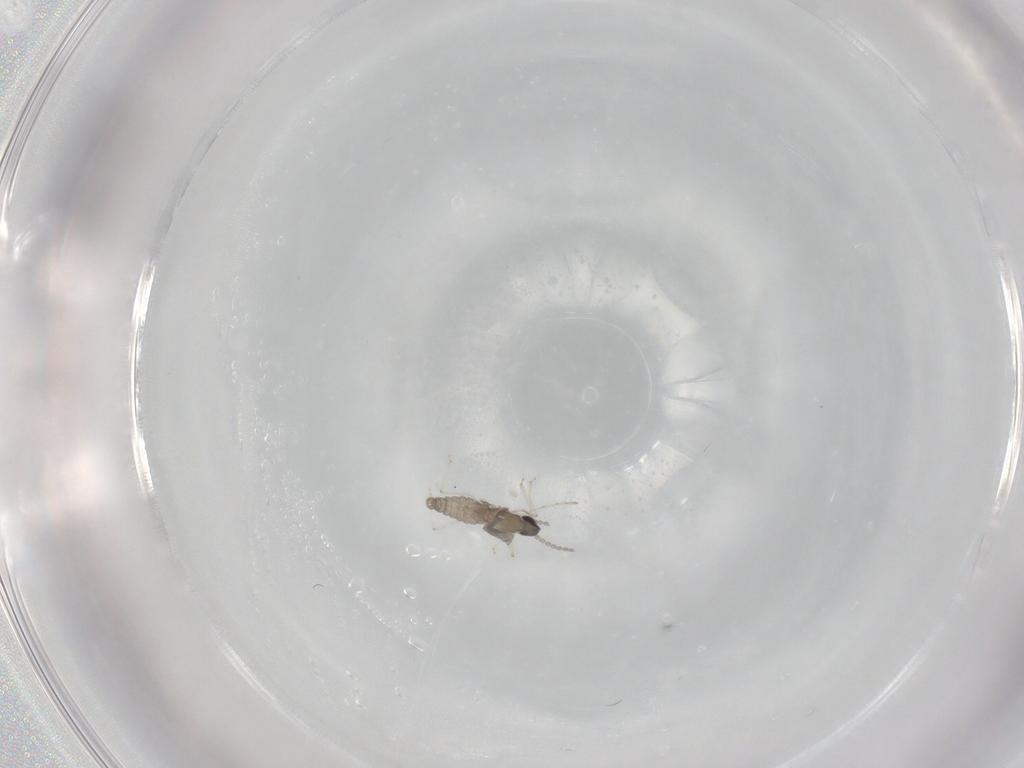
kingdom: Animalia
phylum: Arthropoda
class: Insecta
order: Diptera
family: Cecidomyiidae
